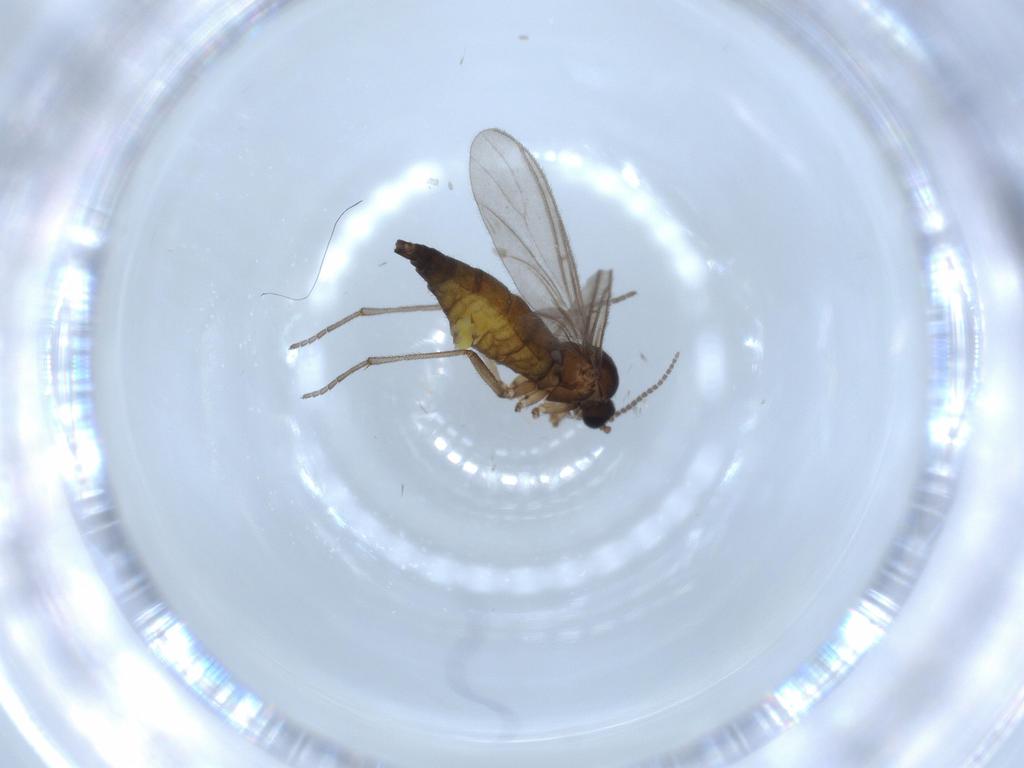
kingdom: Animalia
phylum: Arthropoda
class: Insecta
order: Diptera
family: Sciaridae
